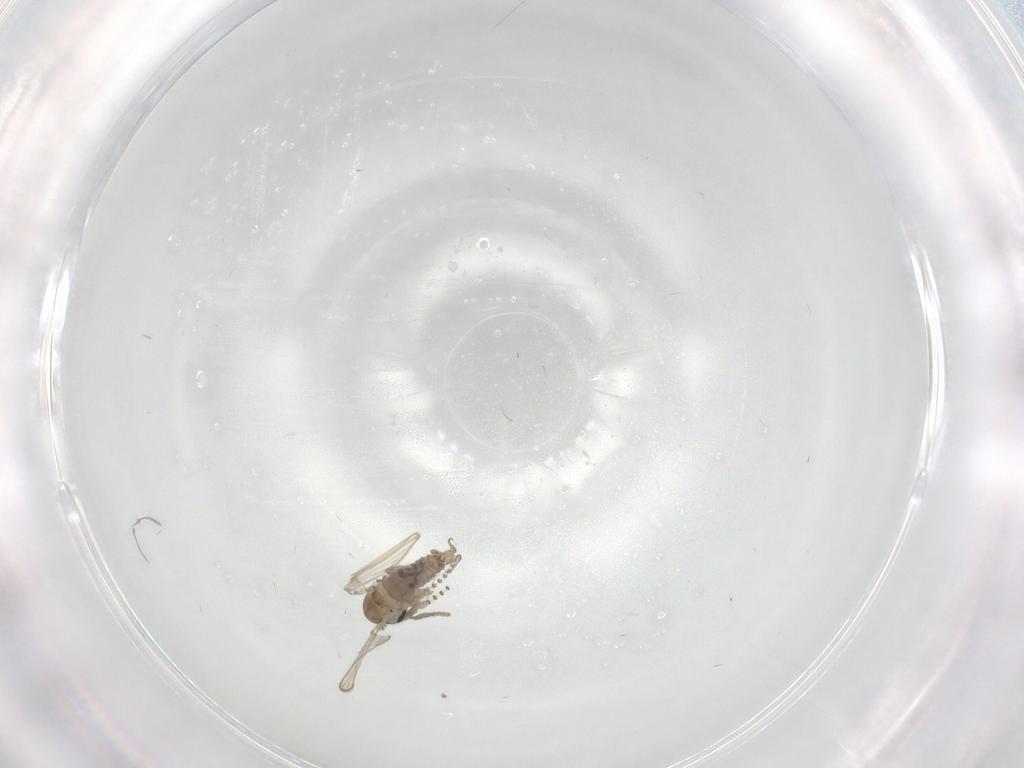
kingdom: Animalia
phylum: Arthropoda
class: Insecta
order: Diptera
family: Psychodidae
